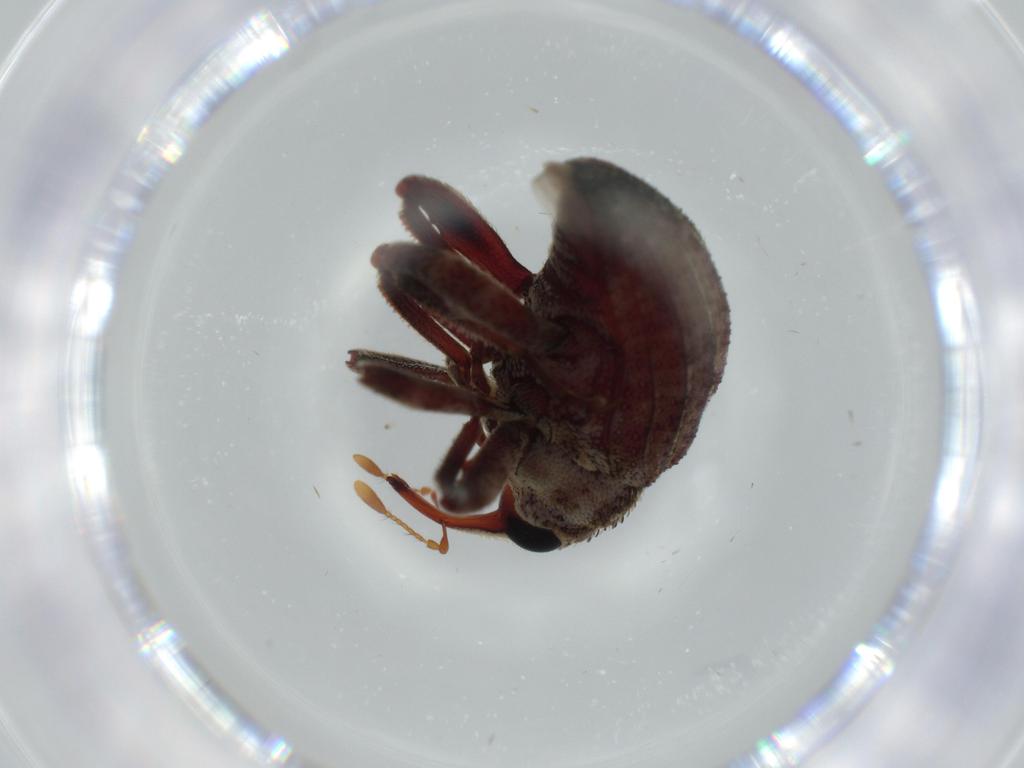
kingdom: Animalia
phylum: Arthropoda
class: Insecta
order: Coleoptera
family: Curculionidae
